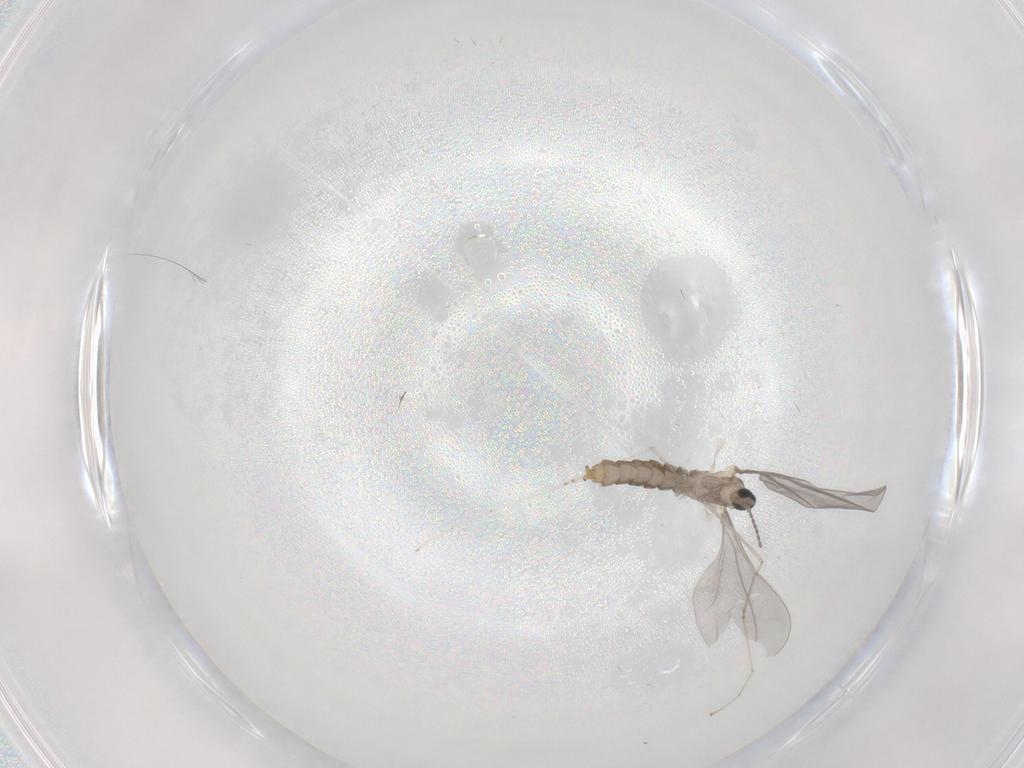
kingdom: Animalia
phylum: Arthropoda
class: Insecta
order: Diptera
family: Cecidomyiidae
